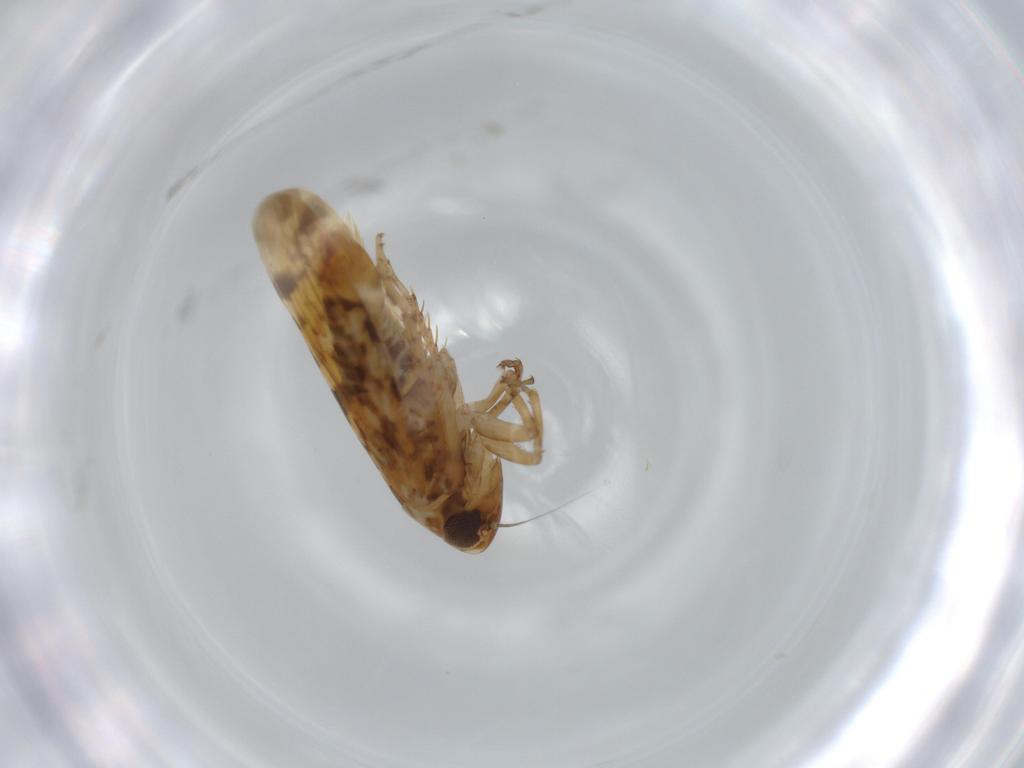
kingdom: Animalia
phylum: Arthropoda
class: Insecta
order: Hemiptera
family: Cicadellidae
